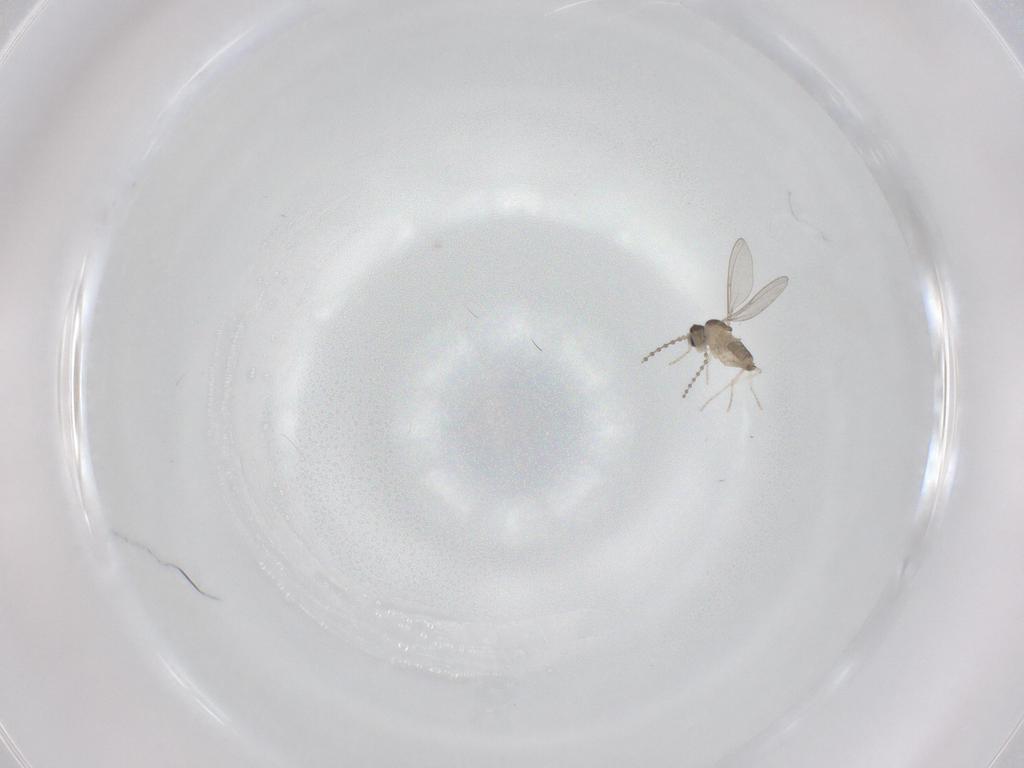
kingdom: Animalia
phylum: Arthropoda
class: Insecta
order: Diptera
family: Cecidomyiidae
